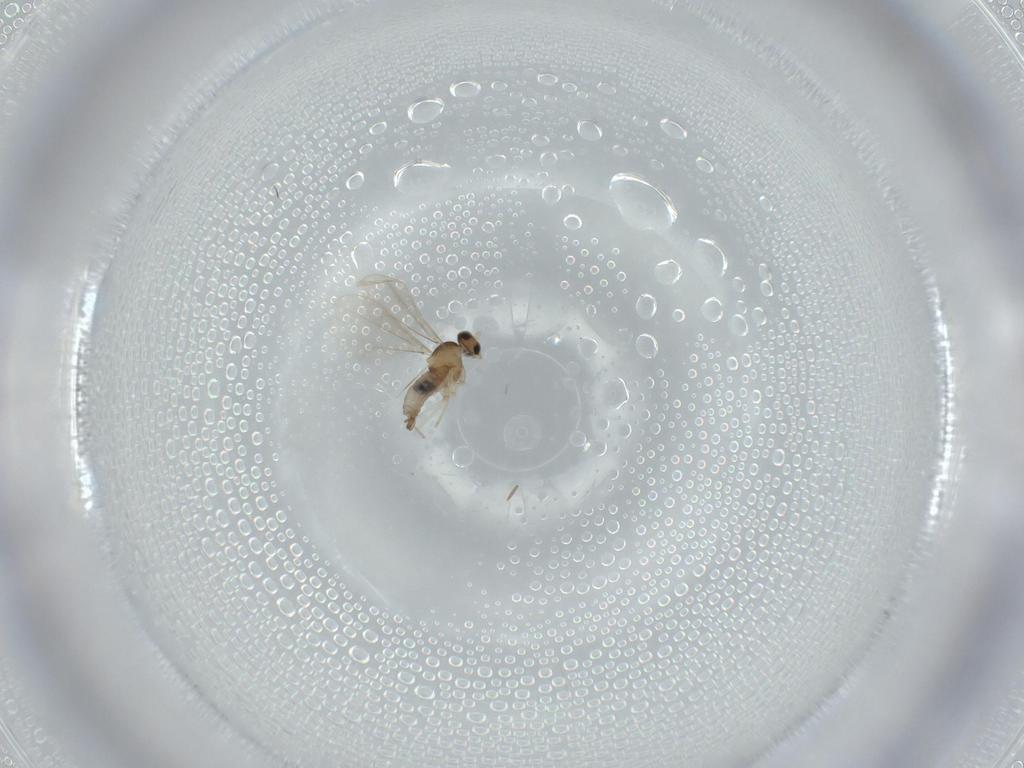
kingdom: Animalia
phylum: Arthropoda
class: Insecta
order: Diptera
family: Cecidomyiidae
